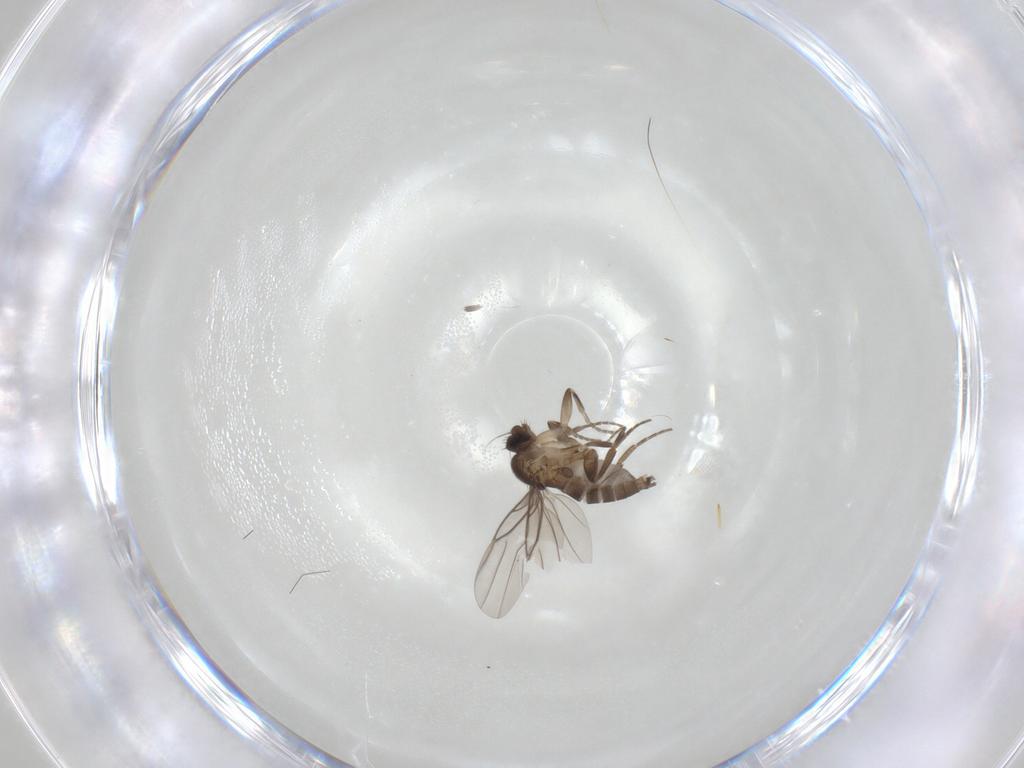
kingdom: Animalia
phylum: Arthropoda
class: Insecta
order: Diptera
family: Phoridae
